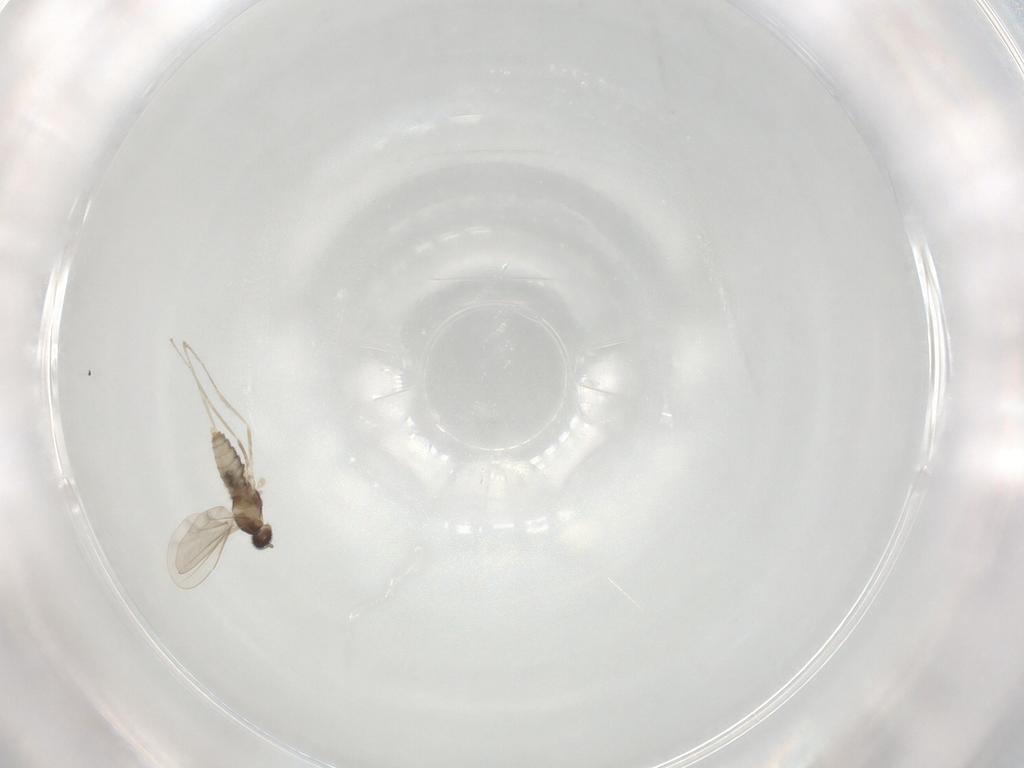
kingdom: Animalia
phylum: Arthropoda
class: Insecta
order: Diptera
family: Cecidomyiidae
